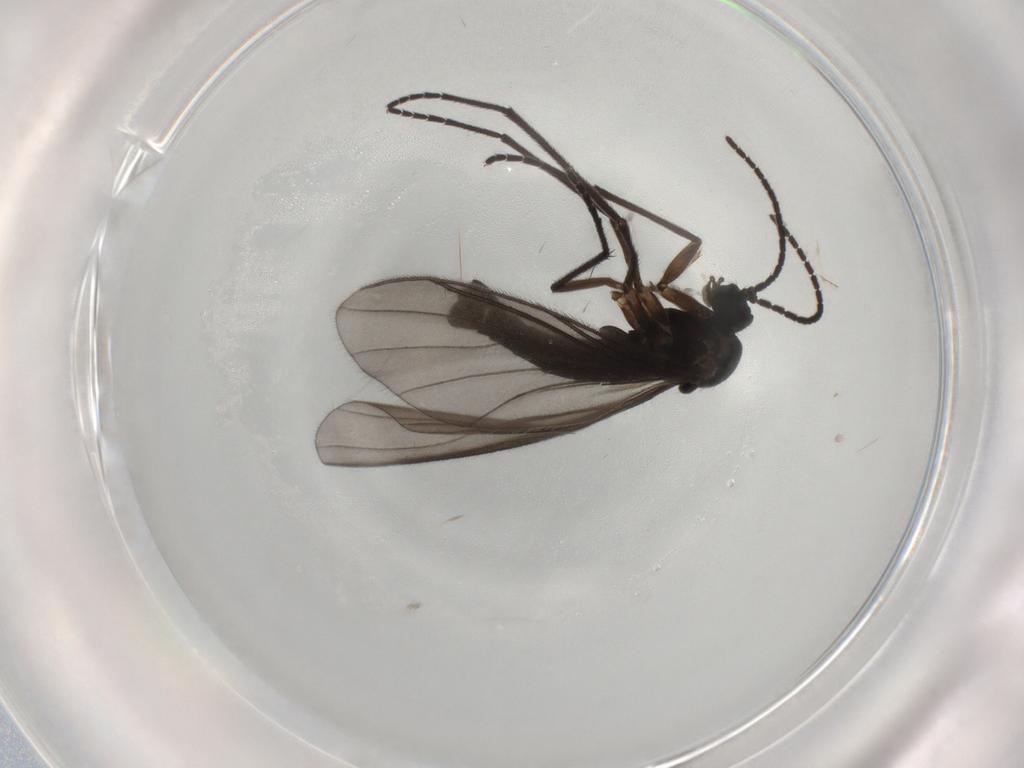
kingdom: Animalia
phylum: Arthropoda
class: Insecta
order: Diptera
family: Sciaridae
